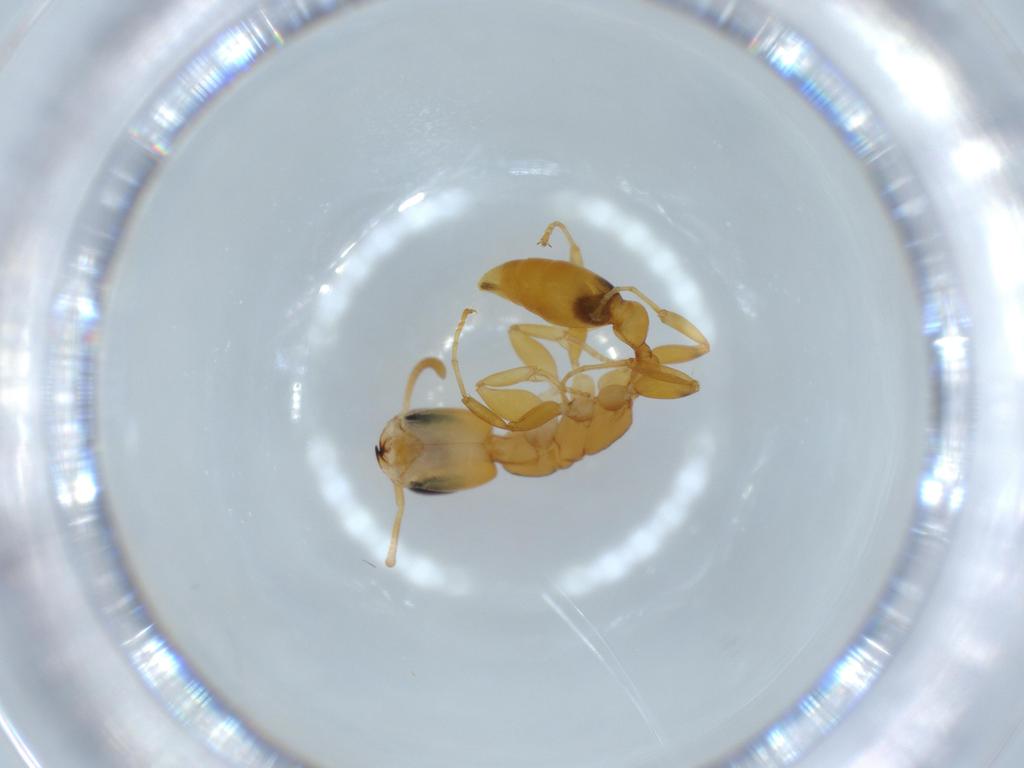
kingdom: Animalia
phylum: Arthropoda
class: Insecta
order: Hymenoptera
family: Formicidae
